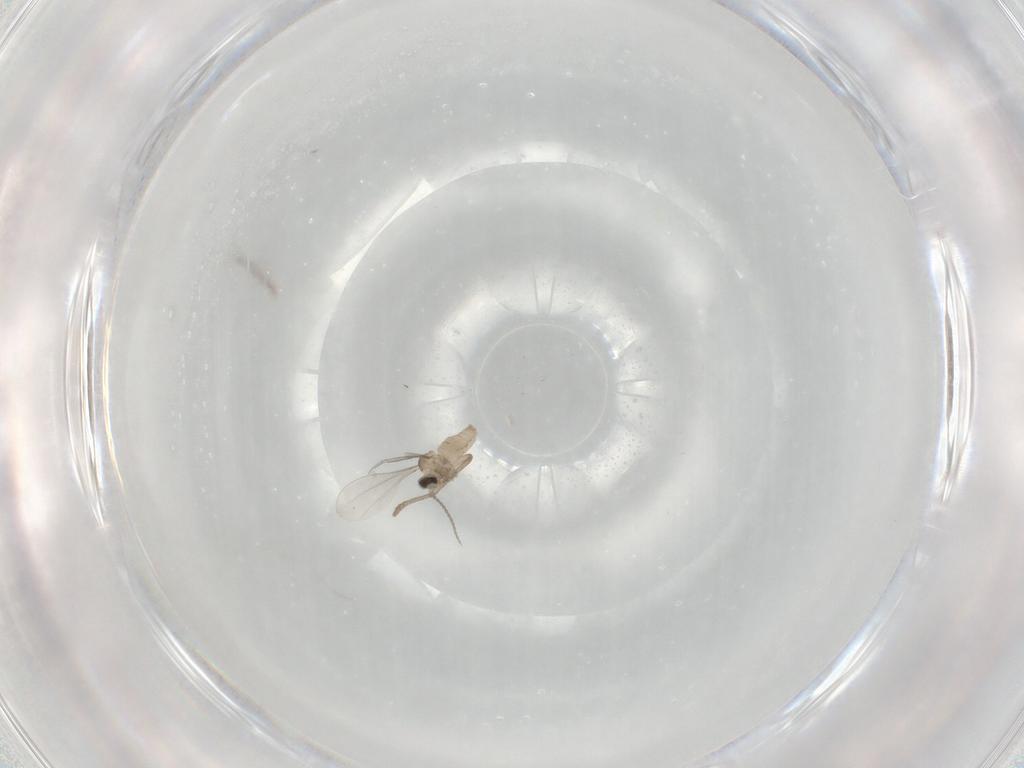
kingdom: Animalia
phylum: Arthropoda
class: Insecta
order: Diptera
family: Cecidomyiidae
